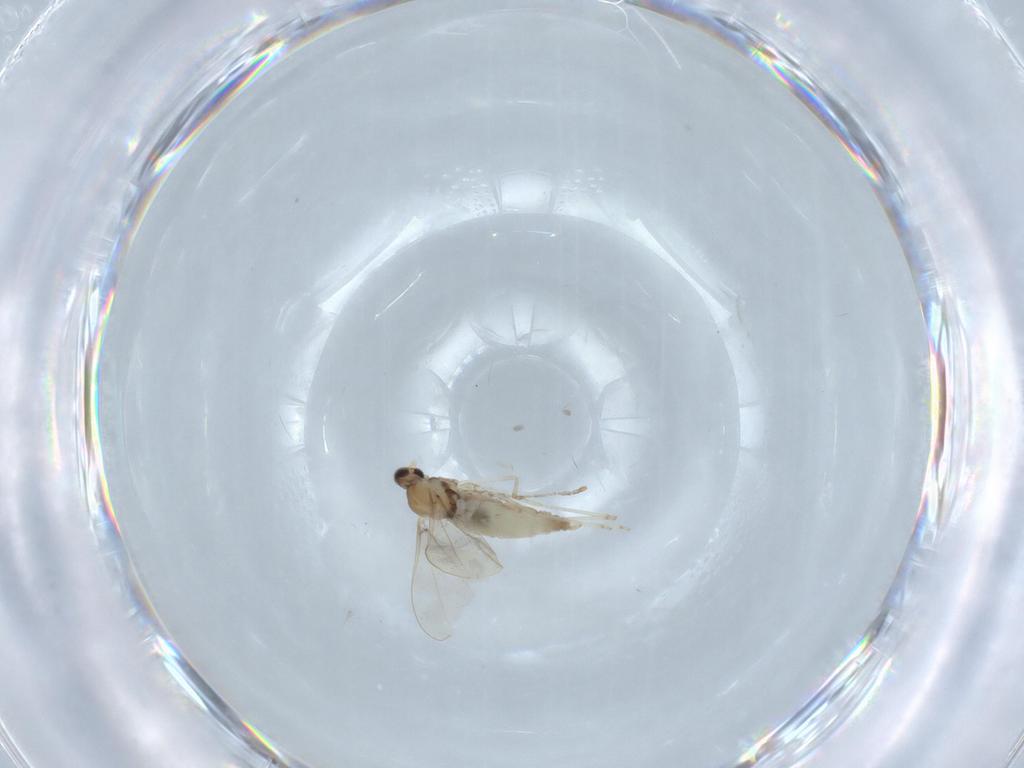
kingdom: Animalia
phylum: Arthropoda
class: Insecta
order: Diptera
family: Cecidomyiidae
